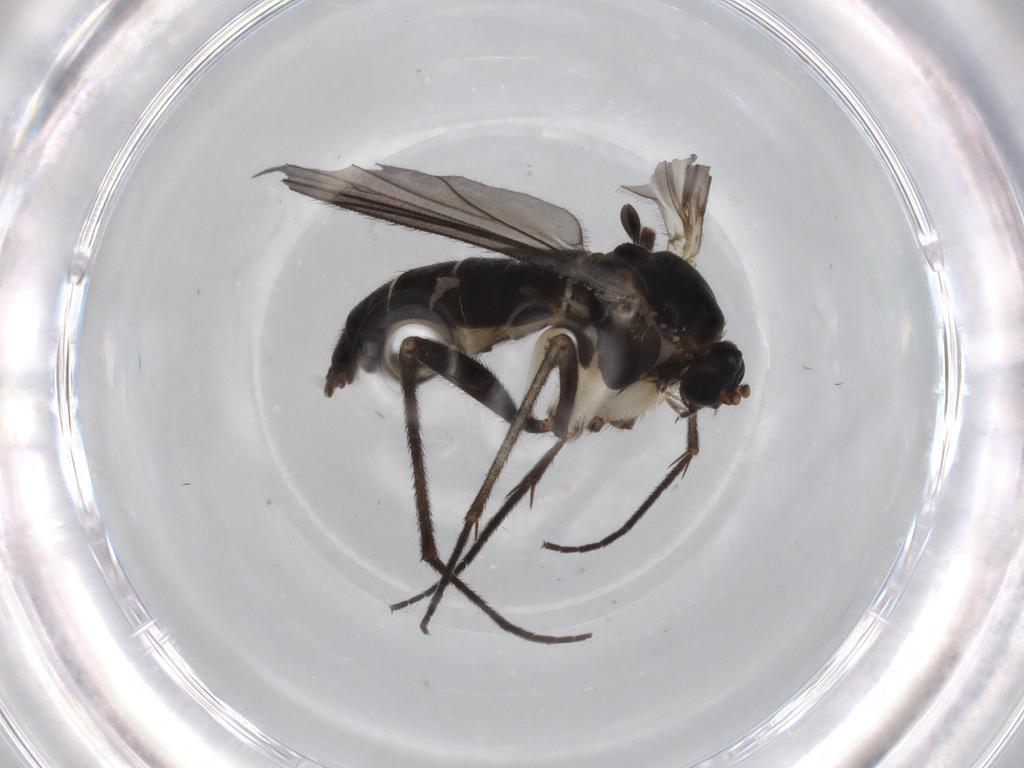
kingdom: Animalia
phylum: Arthropoda
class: Insecta
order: Diptera
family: Sciaridae
